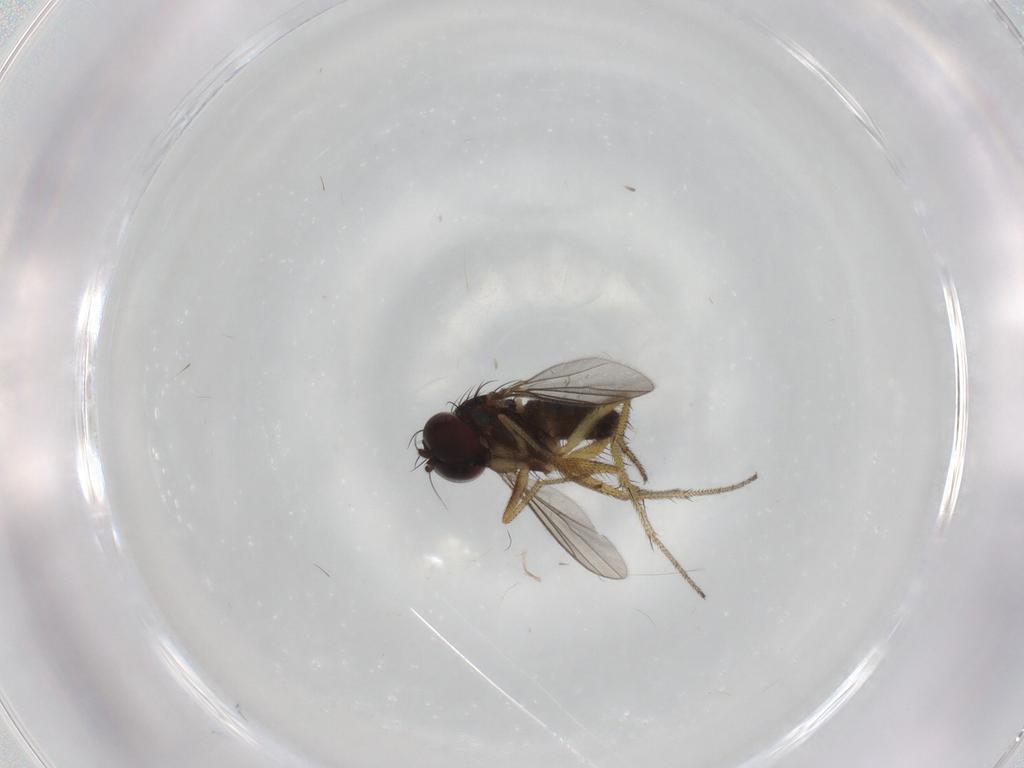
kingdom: Animalia
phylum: Arthropoda
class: Insecta
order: Diptera
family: Dolichopodidae
